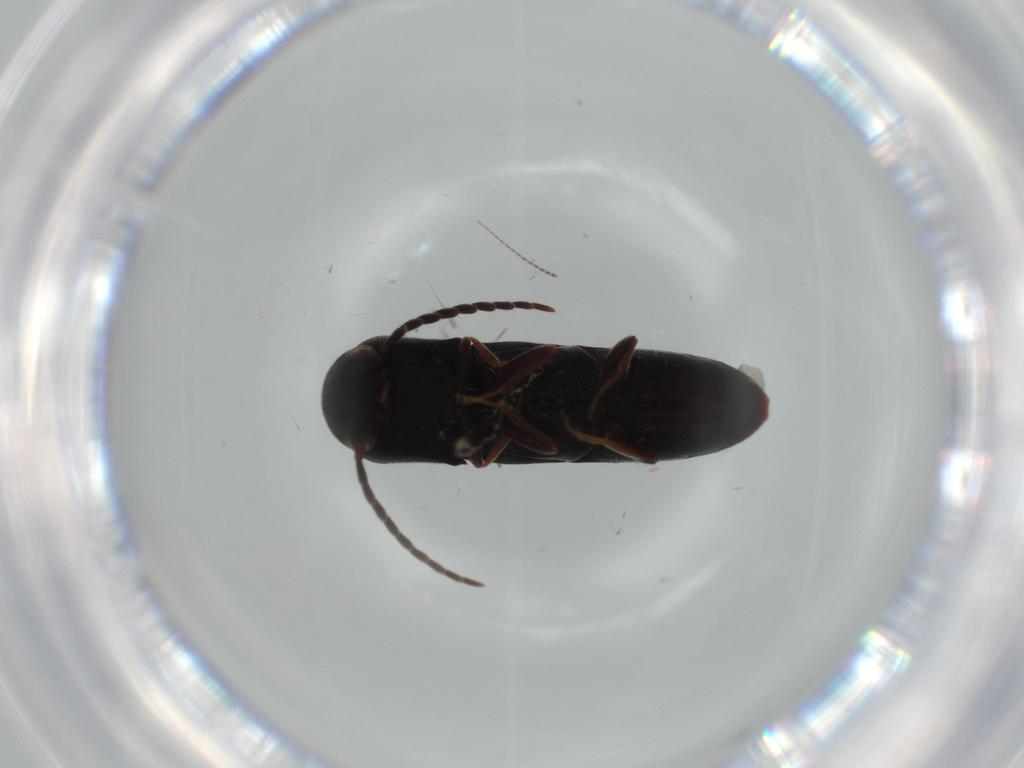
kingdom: Animalia
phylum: Arthropoda
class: Insecta
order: Coleoptera
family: Eucnemidae
